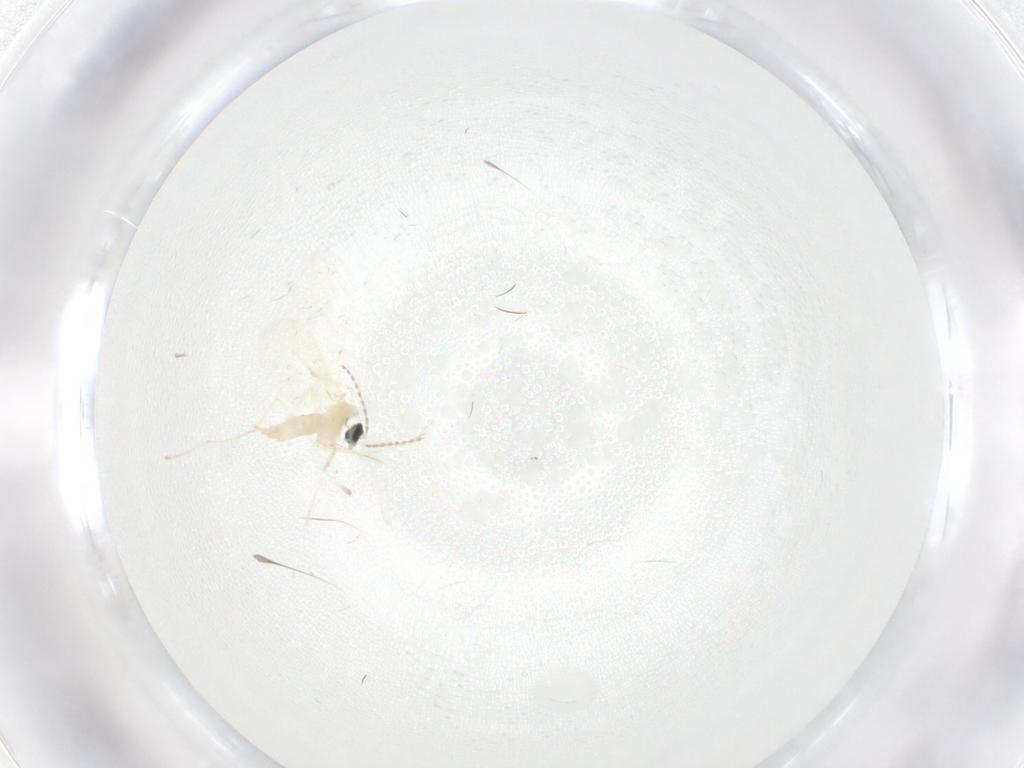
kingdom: Animalia
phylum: Arthropoda
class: Insecta
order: Diptera
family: Cecidomyiidae
